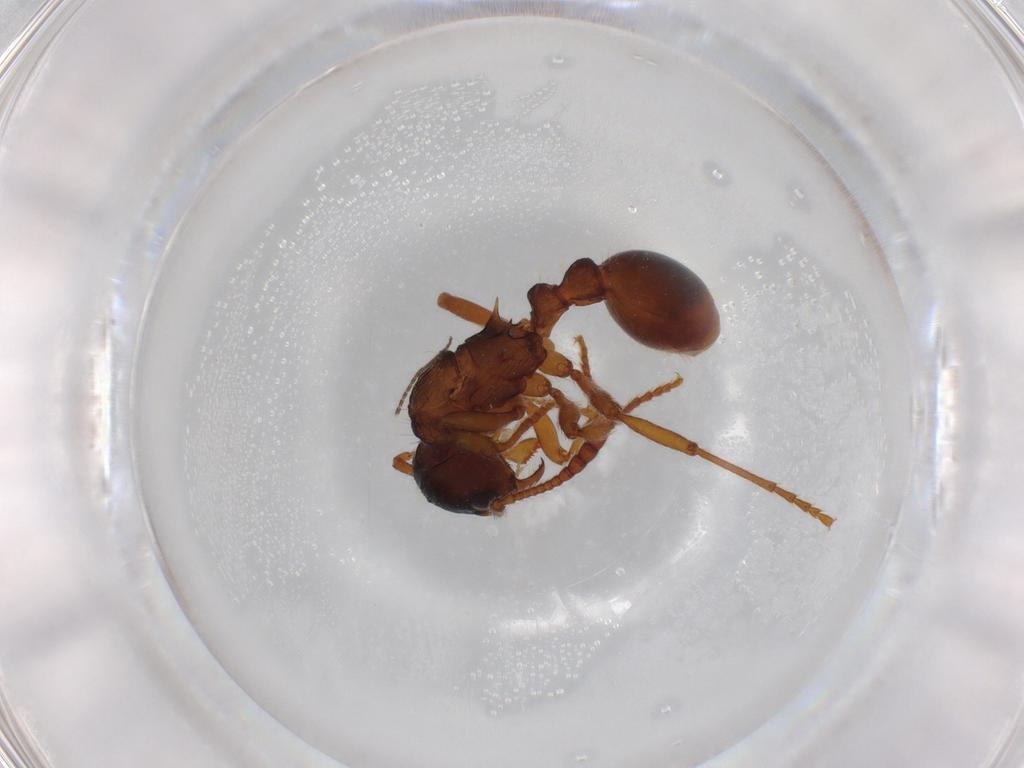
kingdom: Animalia
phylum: Arthropoda
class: Insecta
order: Hymenoptera
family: Formicidae
